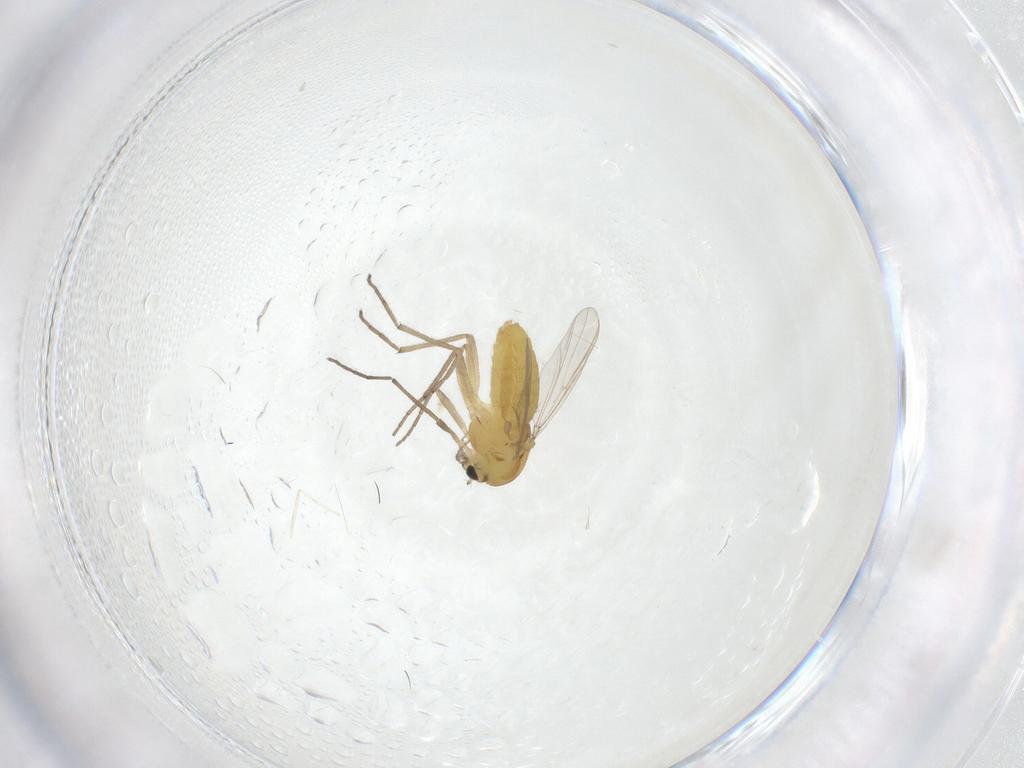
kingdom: Animalia
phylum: Arthropoda
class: Insecta
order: Diptera
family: Chironomidae
